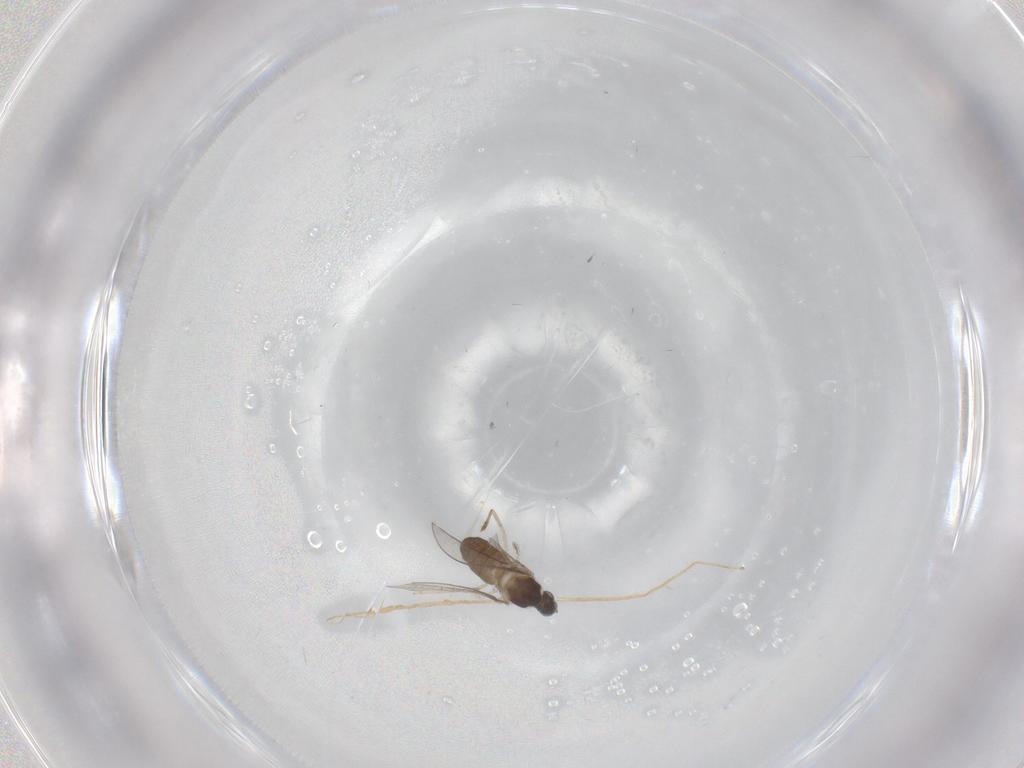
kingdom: Animalia
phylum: Arthropoda
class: Insecta
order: Diptera
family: Cecidomyiidae
